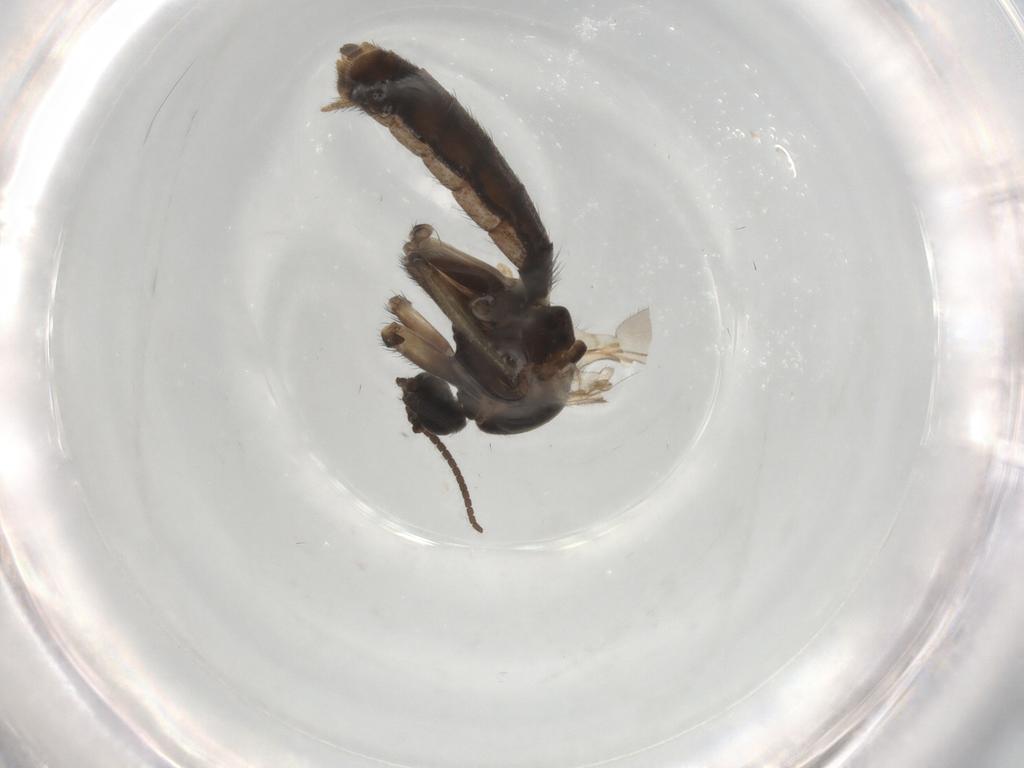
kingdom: Animalia
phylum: Arthropoda
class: Insecta
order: Diptera
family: Keroplatidae
